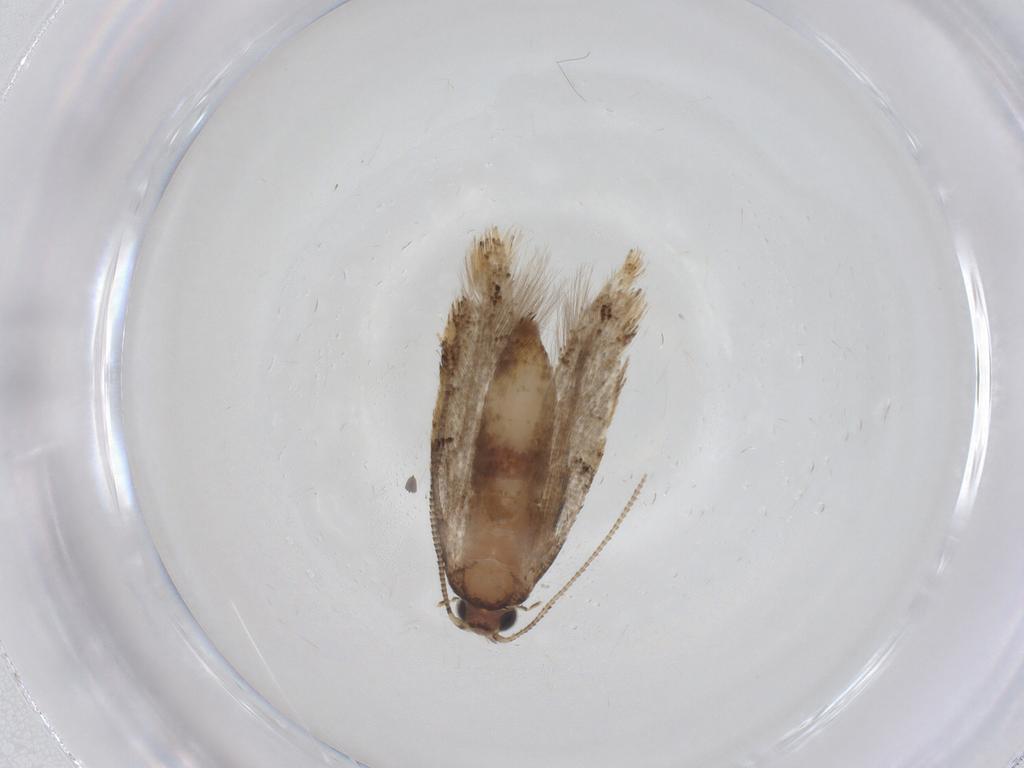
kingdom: Animalia
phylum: Arthropoda
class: Insecta
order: Lepidoptera
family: Tineidae
